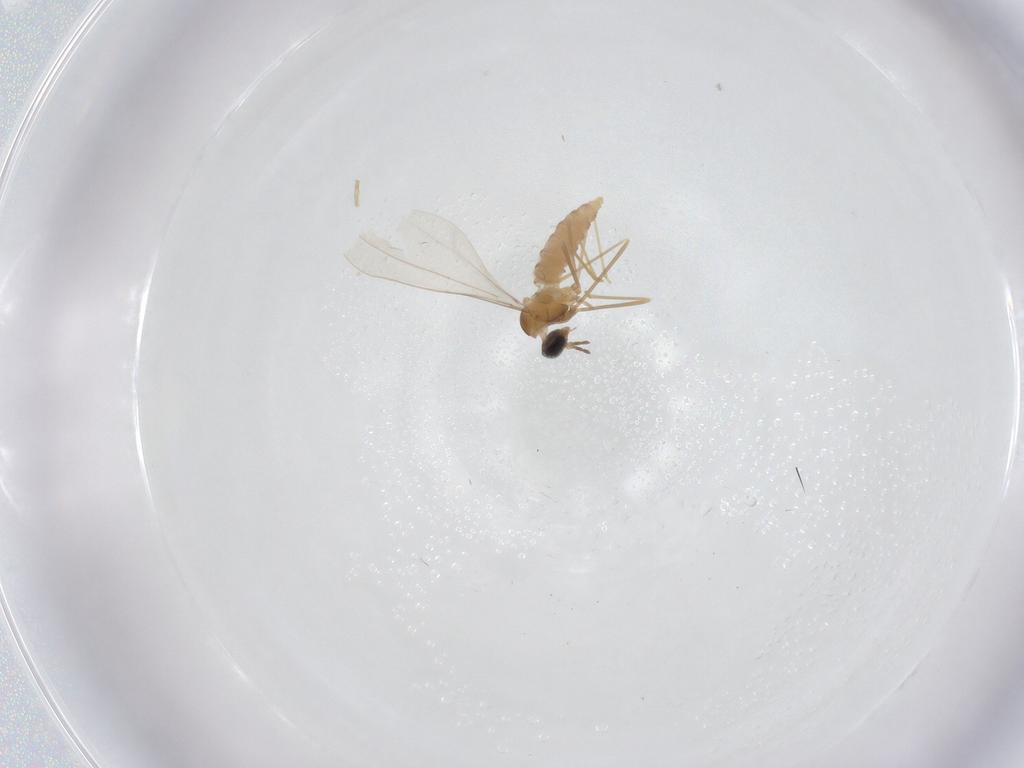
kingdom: Animalia
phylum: Arthropoda
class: Insecta
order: Diptera
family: Cecidomyiidae
